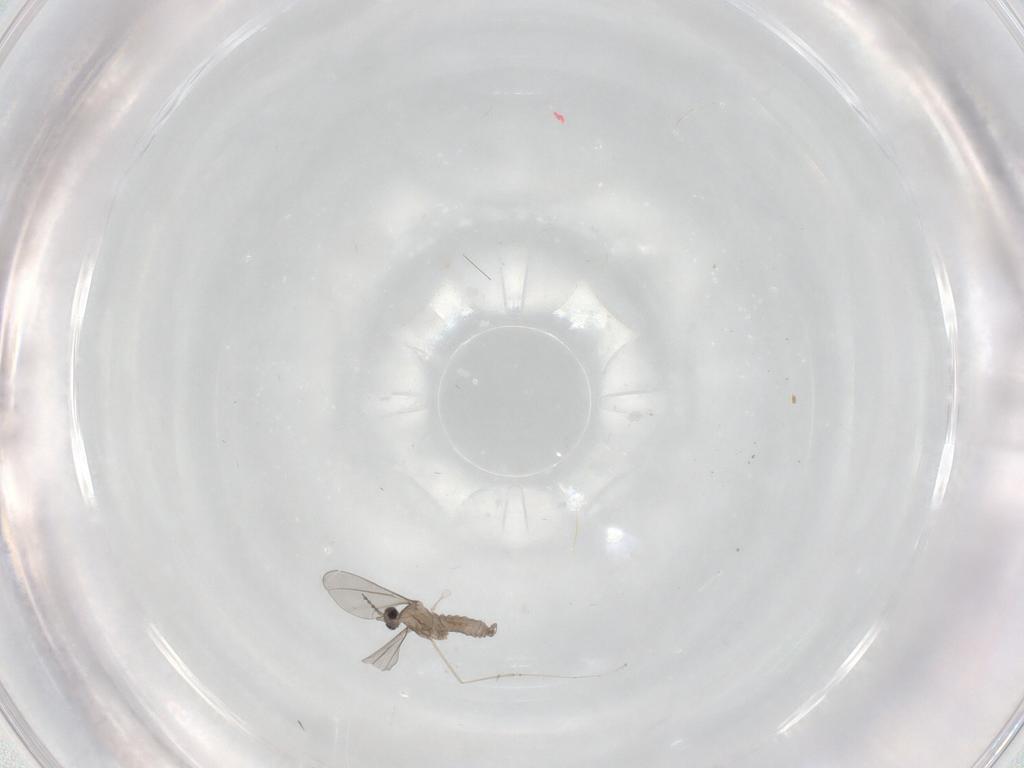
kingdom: Animalia
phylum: Arthropoda
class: Insecta
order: Diptera
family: Cecidomyiidae
